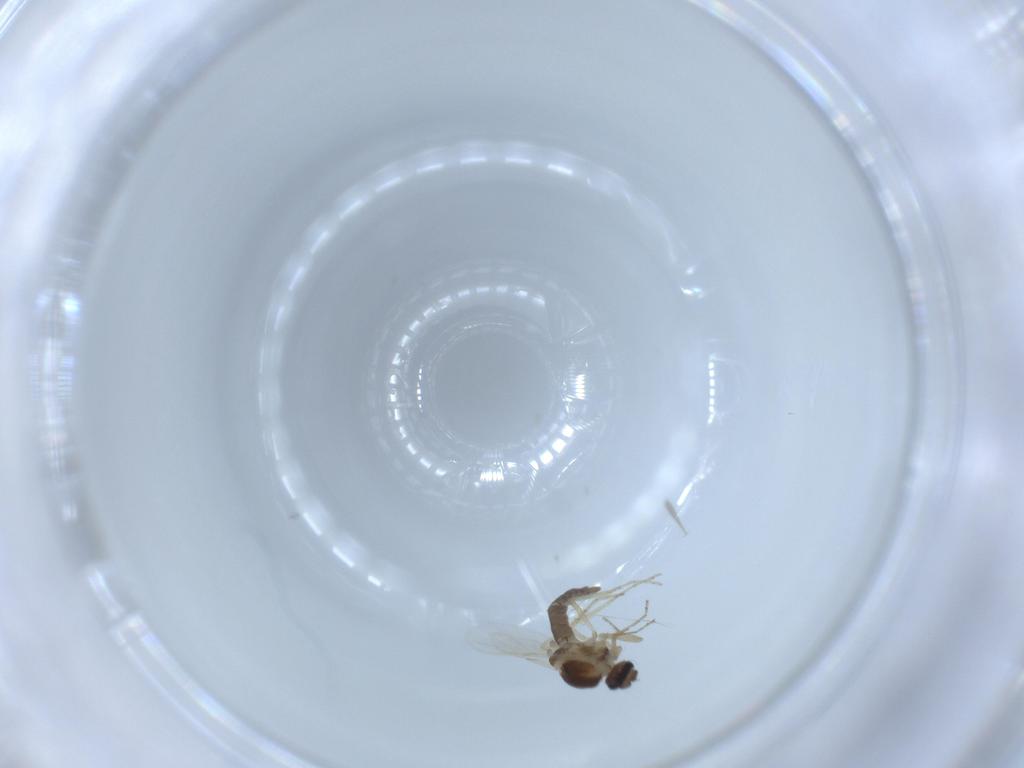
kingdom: Animalia
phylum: Arthropoda
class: Insecta
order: Diptera
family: Ceratopogonidae
